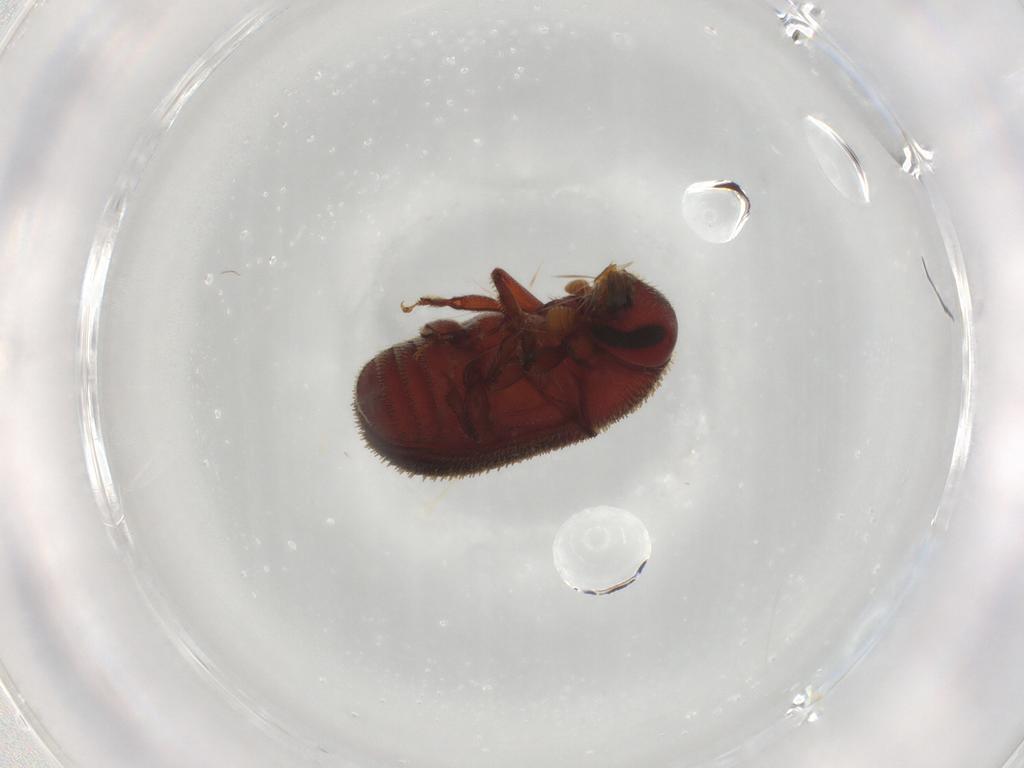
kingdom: Animalia
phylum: Arthropoda
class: Insecta
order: Coleoptera
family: Curculionidae
